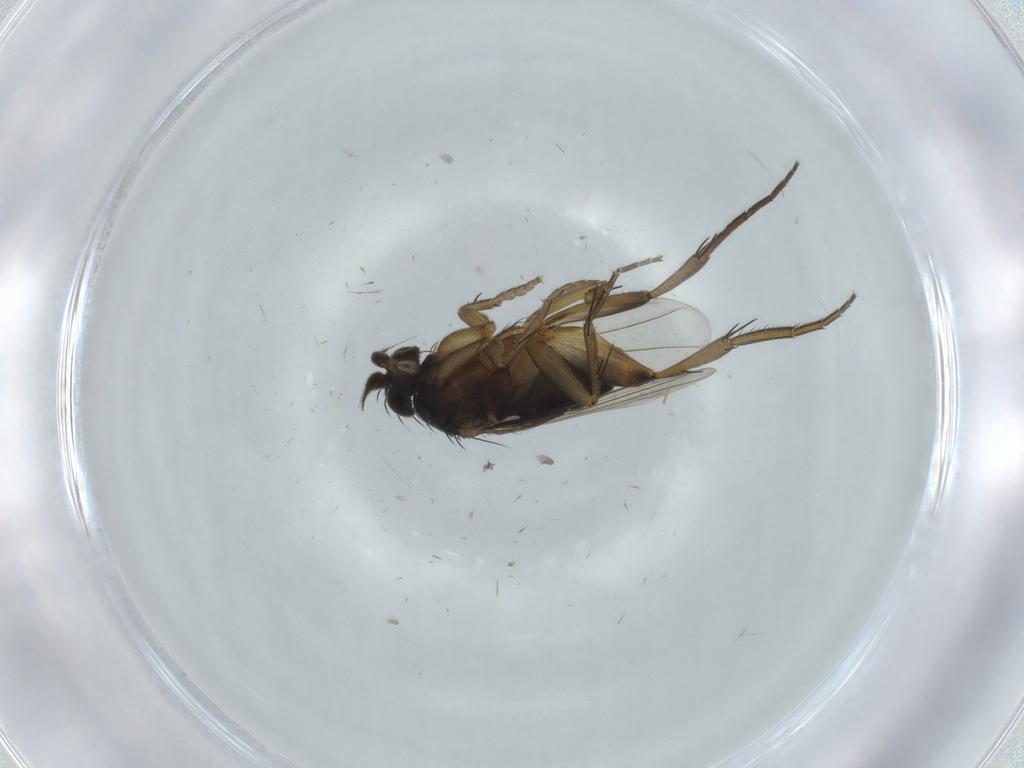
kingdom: Animalia
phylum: Arthropoda
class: Insecta
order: Diptera
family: Phoridae
